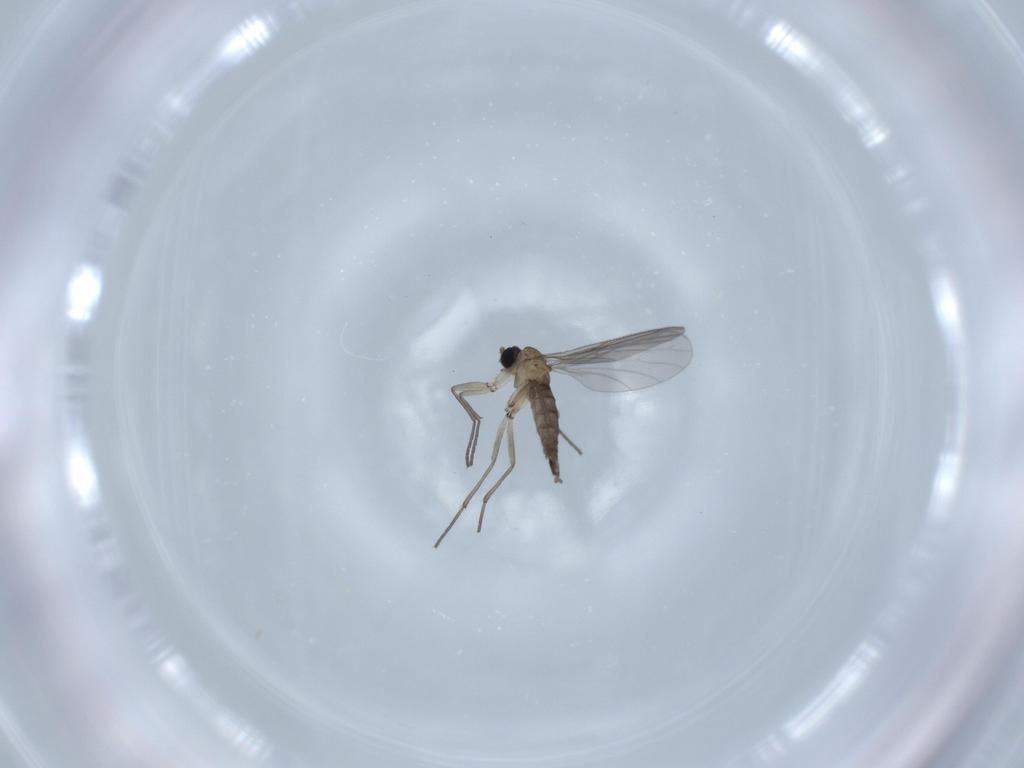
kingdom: Animalia
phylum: Arthropoda
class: Insecta
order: Diptera
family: Sciaridae
